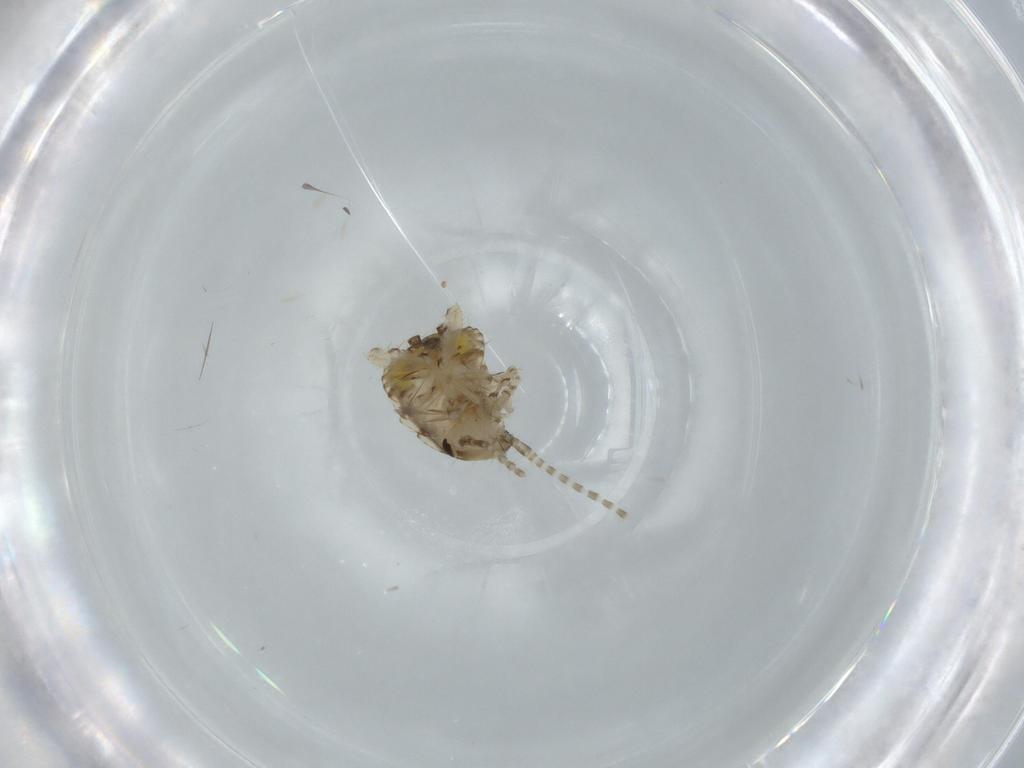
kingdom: Animalia
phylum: Arthropoda
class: Insecta
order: Blattodea
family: Ectobiidae
